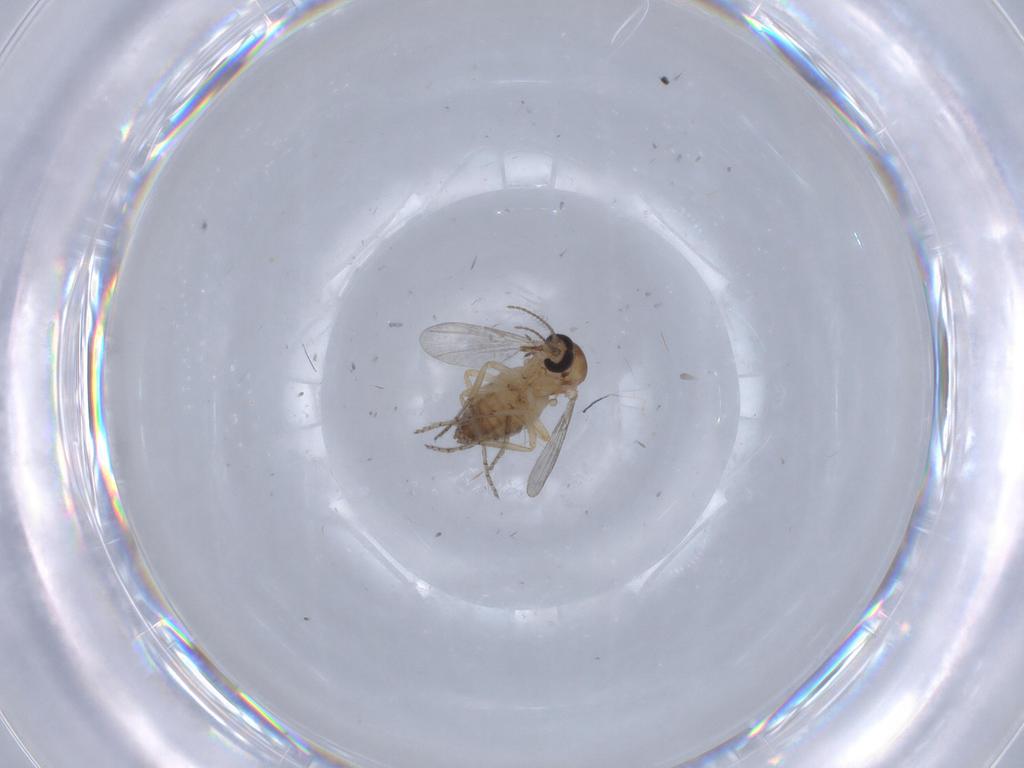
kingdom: Animalia
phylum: Arthropoda
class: Insecta
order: Diptera
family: Ceratopogonidae
